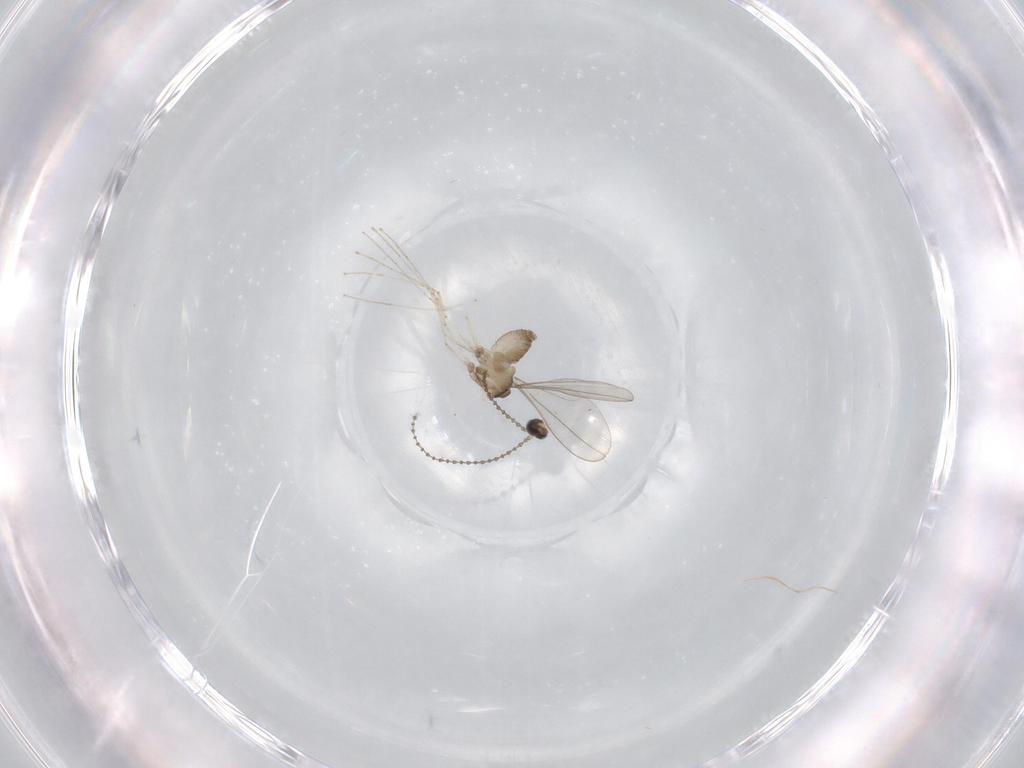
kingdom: Animalia
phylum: Arthropoda
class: Insecta
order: Diptera
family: Cecidomyiidae
